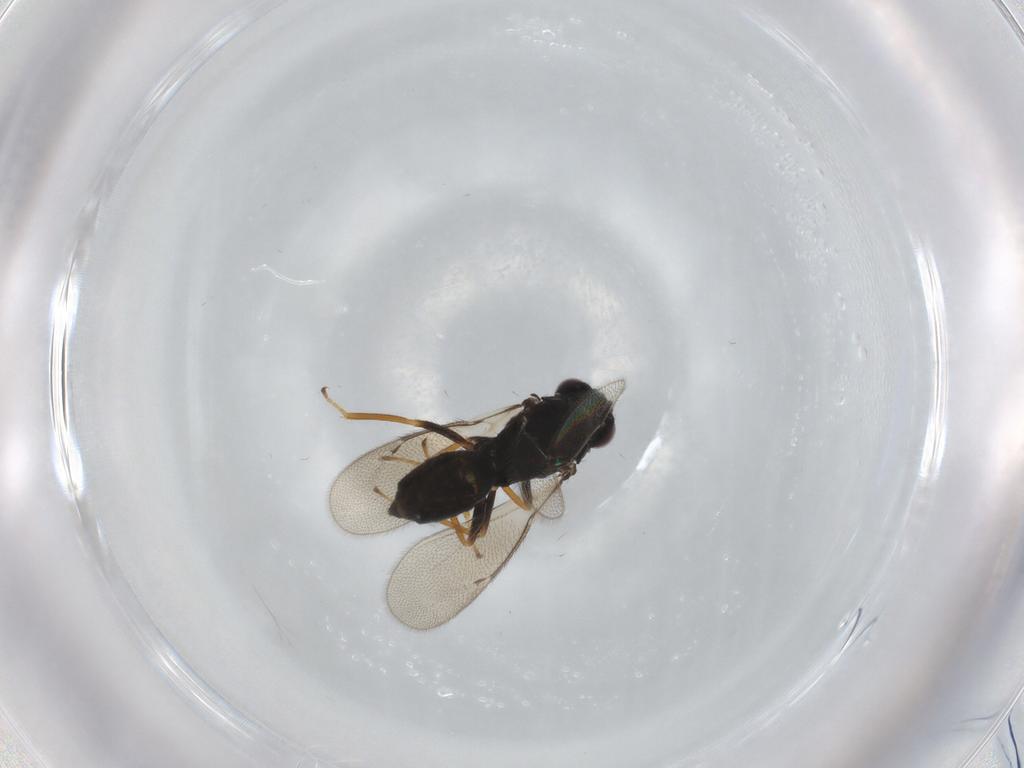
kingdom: Animalia
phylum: Arthropoda
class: Insecta
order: Hymenoptera
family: Eulophidae
